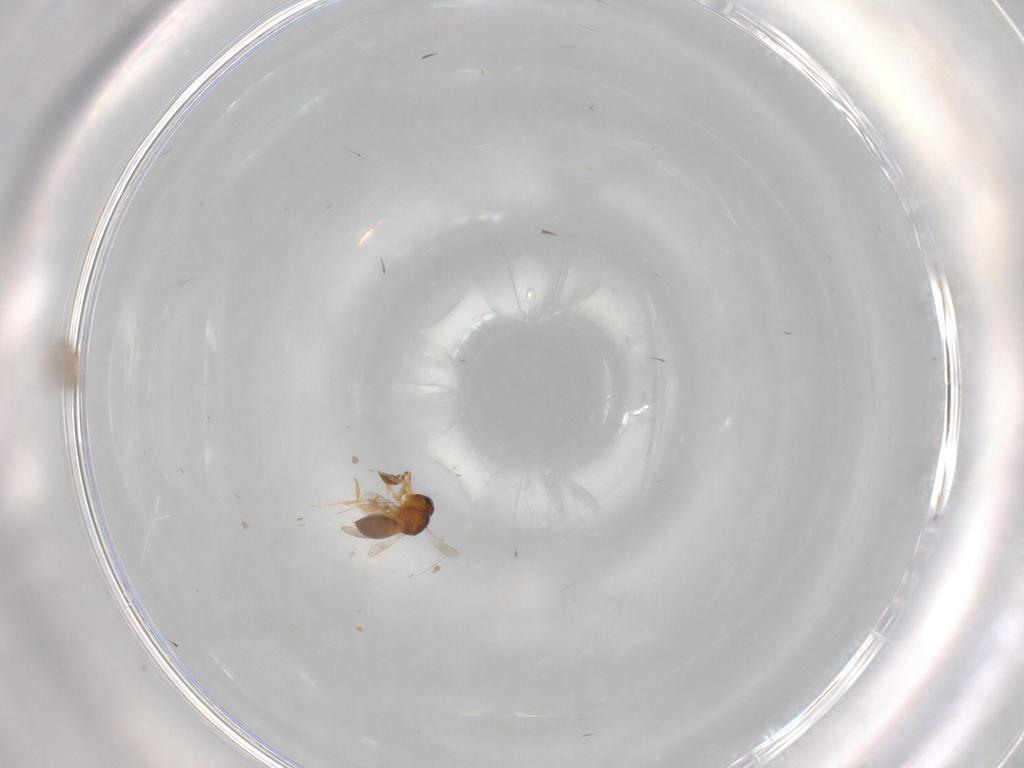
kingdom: Animalia
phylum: Arthropoda
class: Insecta
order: Hymenoptera
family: Scelionidae
